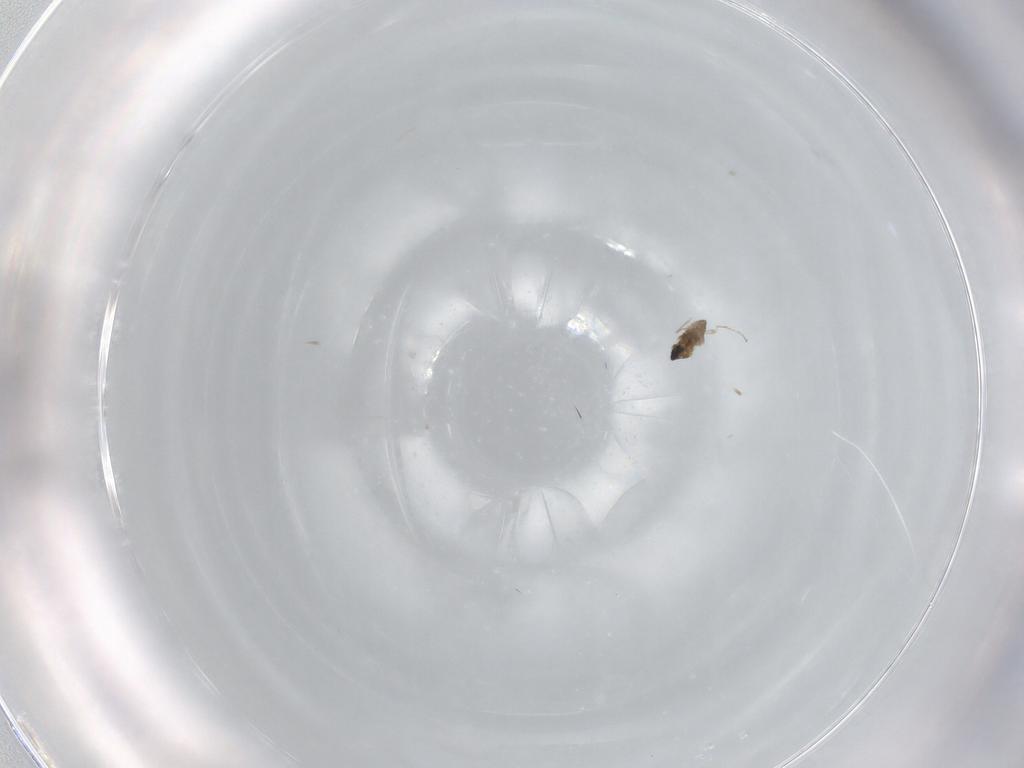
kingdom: Animalia
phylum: Arthropoda
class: Insecta
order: Diptera
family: Cecidomyiidae
